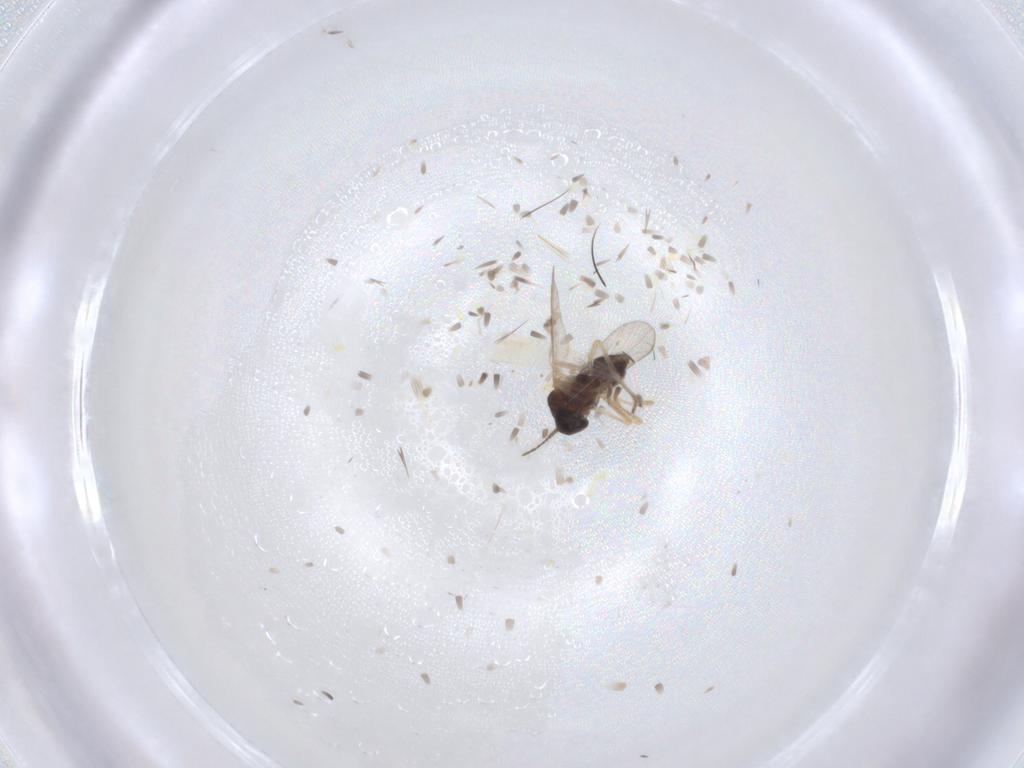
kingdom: Animalia
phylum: Arthropoda
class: Insecta
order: Diptera
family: Ceratopogonidae
